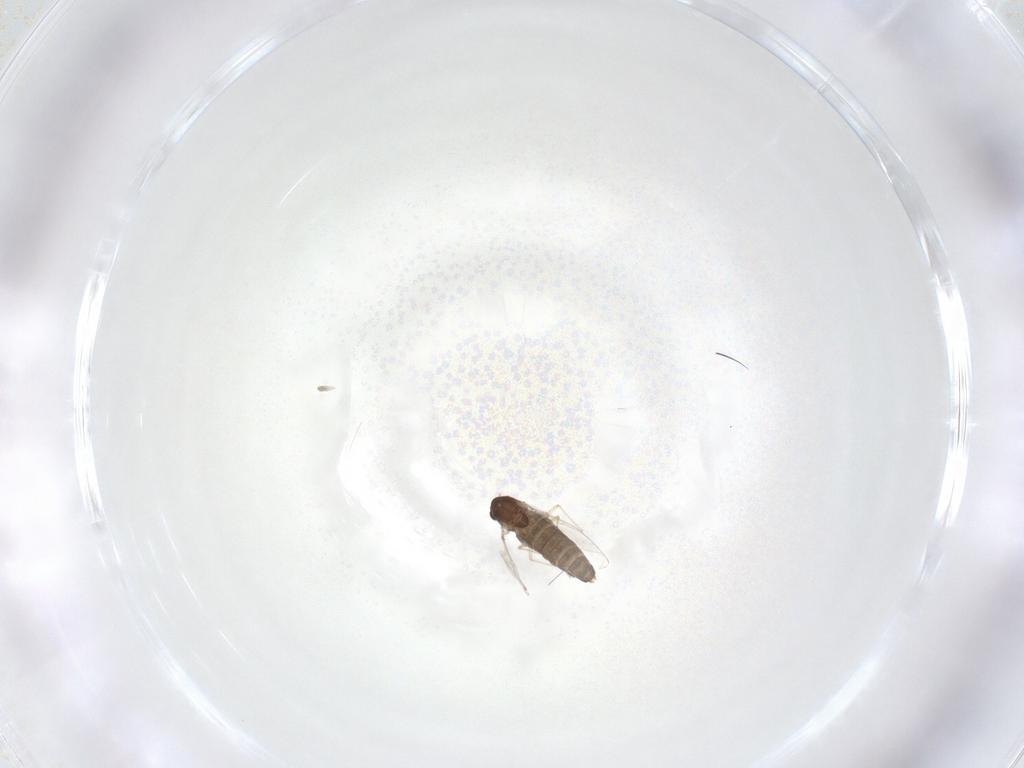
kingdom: Animalia
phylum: Arthropoda
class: Insecta
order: Diptera
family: Chironomidae
